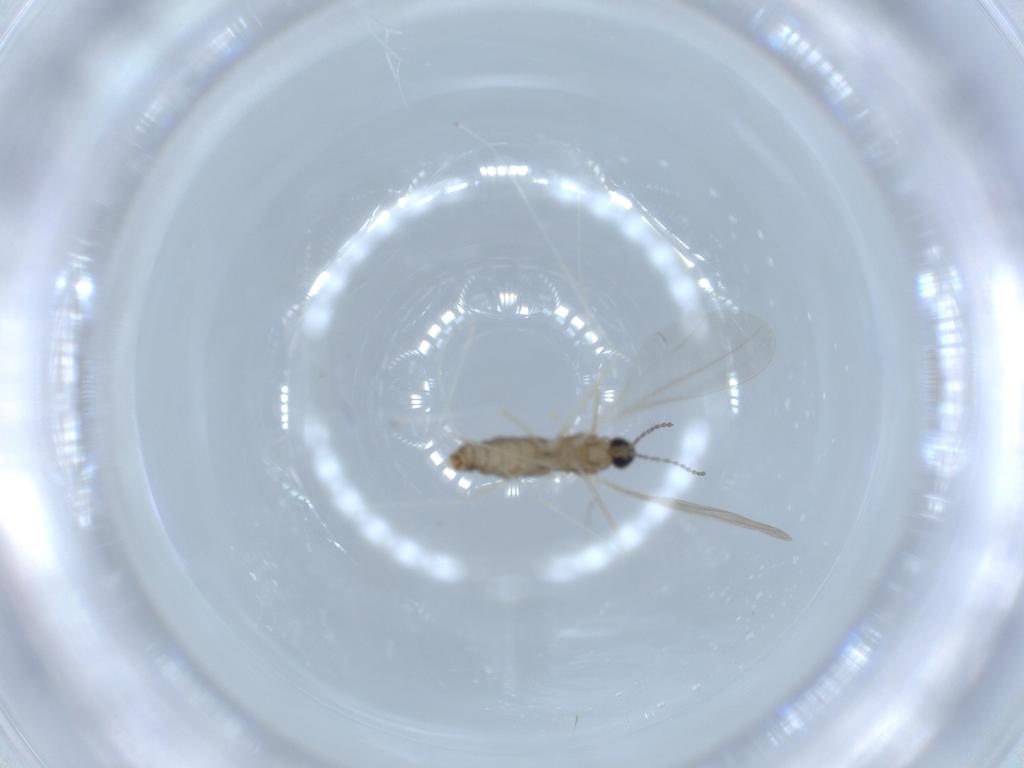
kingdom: Animalia
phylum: Arthropoda
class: Insecta
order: Diptera
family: Cecidomyiidae
